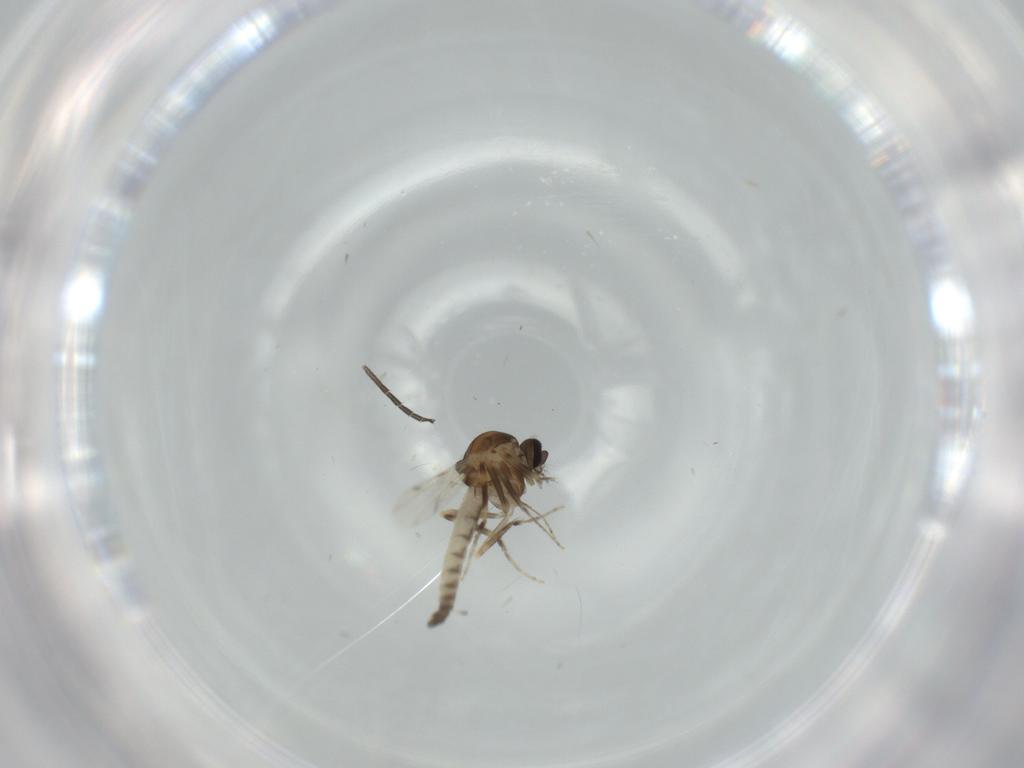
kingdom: Animalia
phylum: Arthropoda
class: Insecta
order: Diptera
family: Ceratopogonidae
